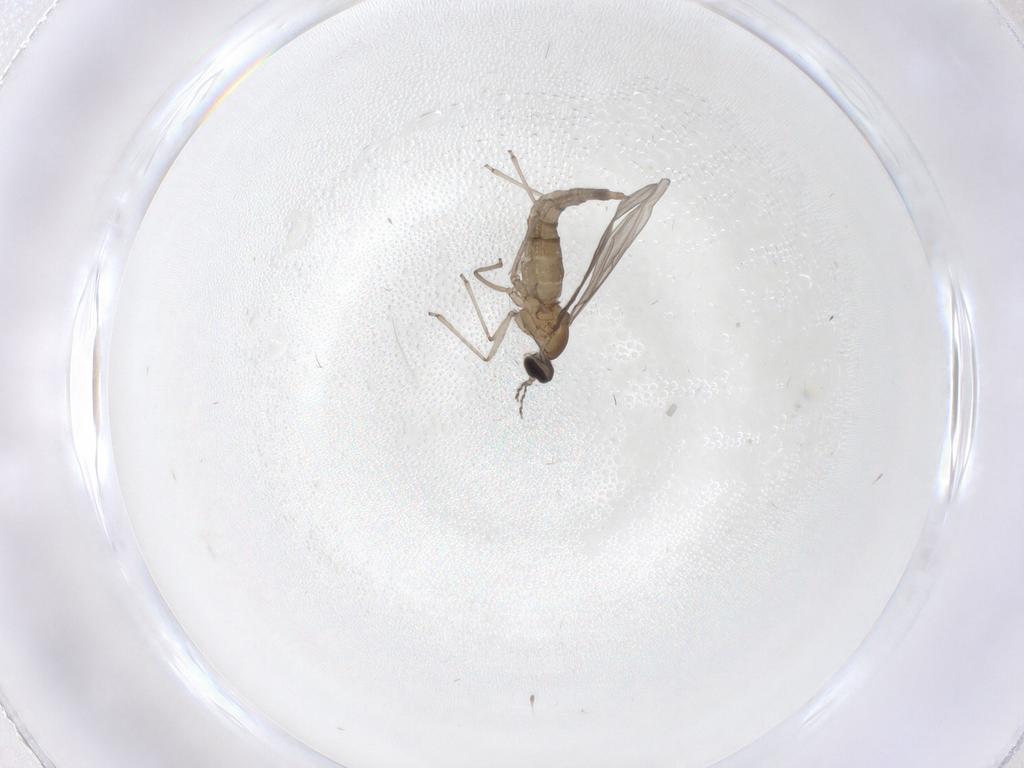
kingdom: Animalia
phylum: Arthropoda
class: Insecta
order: Diptera
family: Cecidomyiidae
